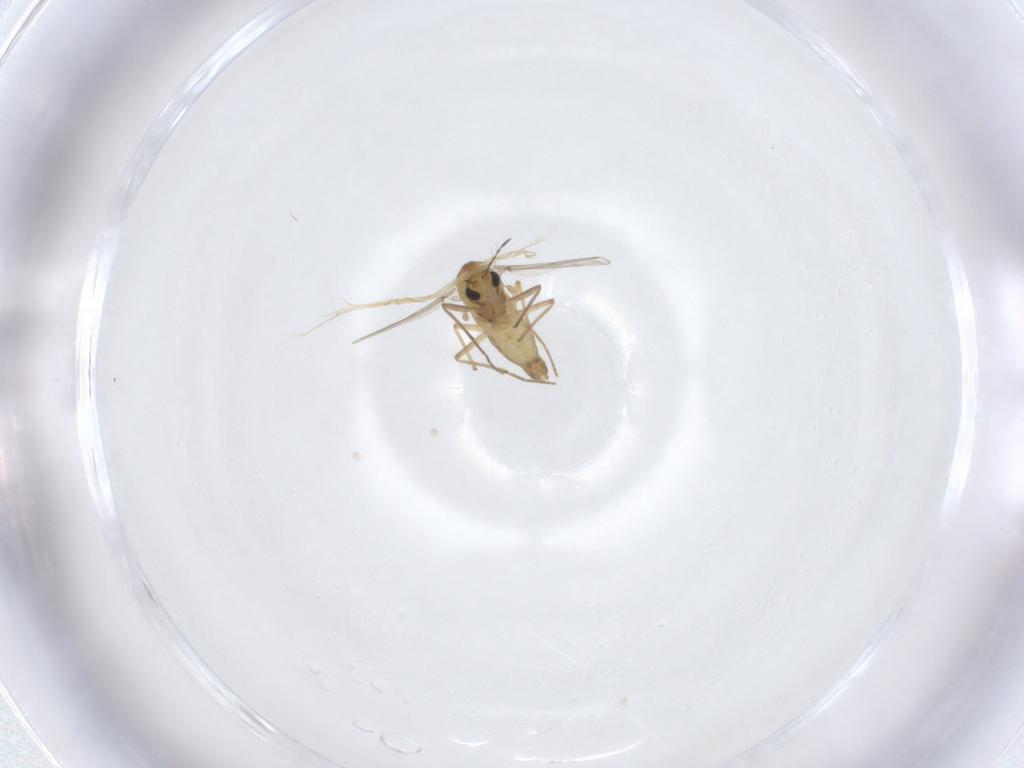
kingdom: Animalia
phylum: Arthropoda
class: Insecta
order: Diptera
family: Chironomidae
